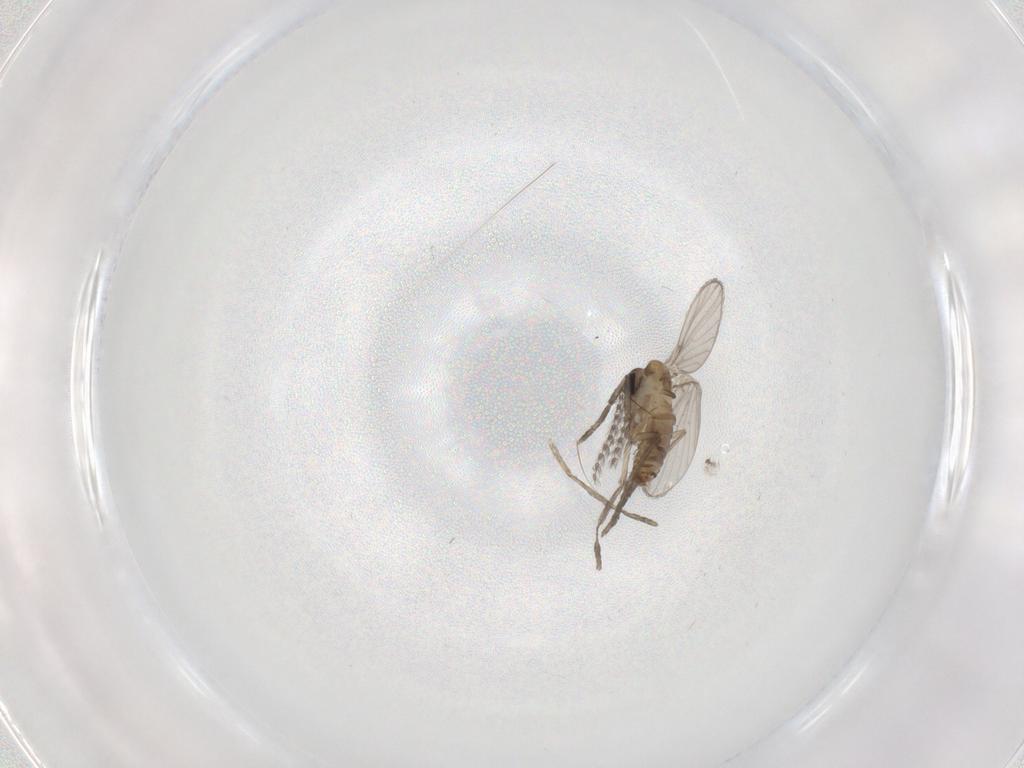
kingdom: Animalia
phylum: Arthropoda
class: Insecta
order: Diptera
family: Psychodidae
